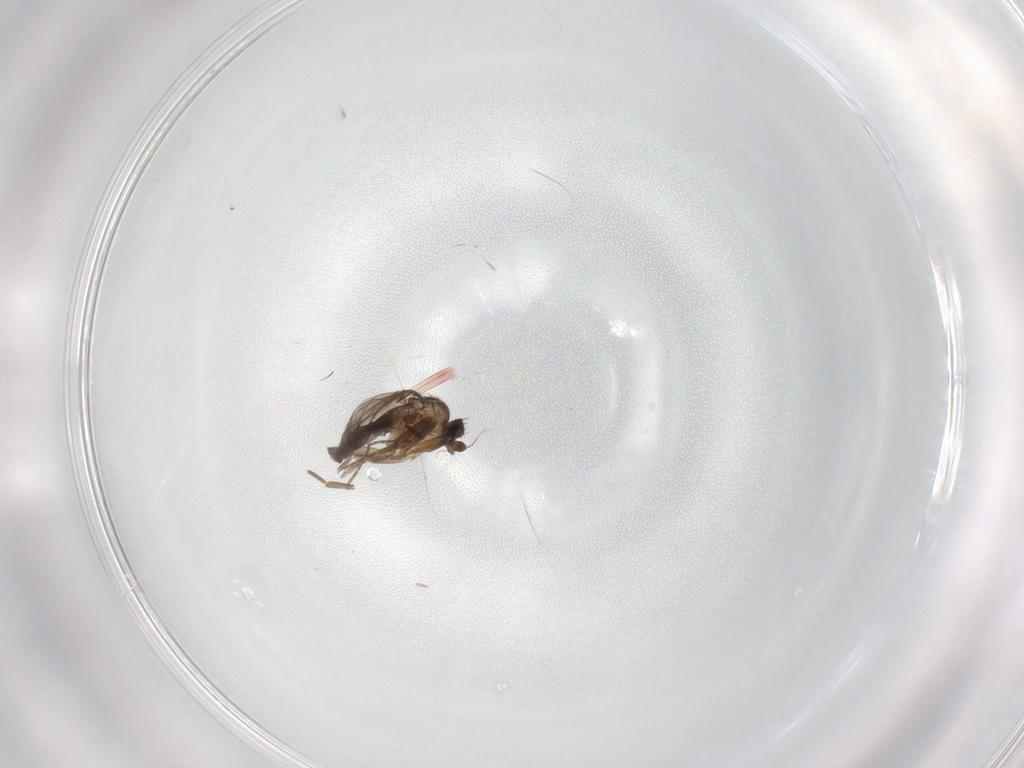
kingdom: Animalia
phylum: Arthropoda
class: Insecta
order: Diptera
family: Cecidomyiidae
